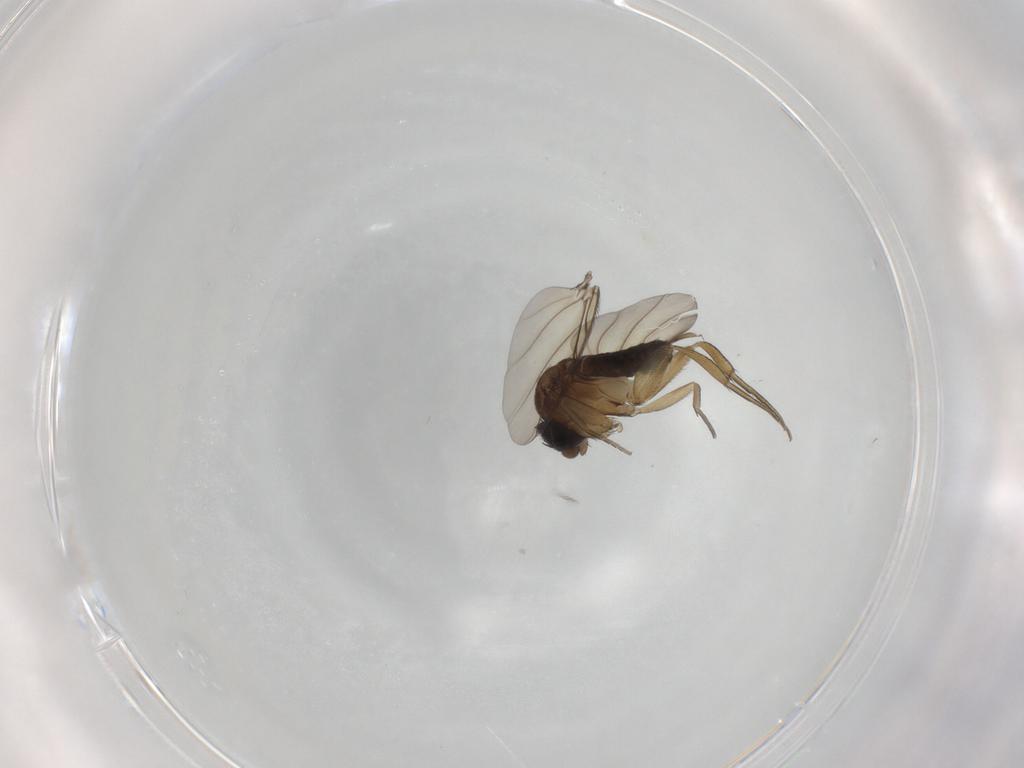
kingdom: Animalia
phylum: Arthropoda
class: Insecta
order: Diptera
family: Phoridae
